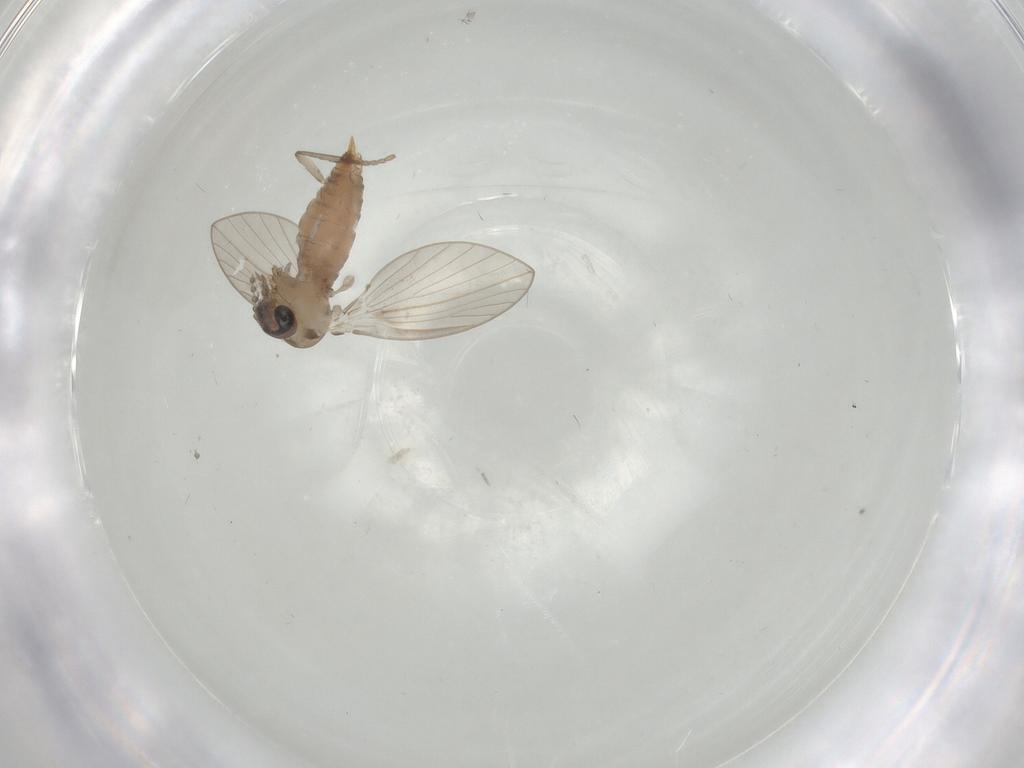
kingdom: Animalia
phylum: Arthropoda
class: Insecta
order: Diptera
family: Psychodidae
